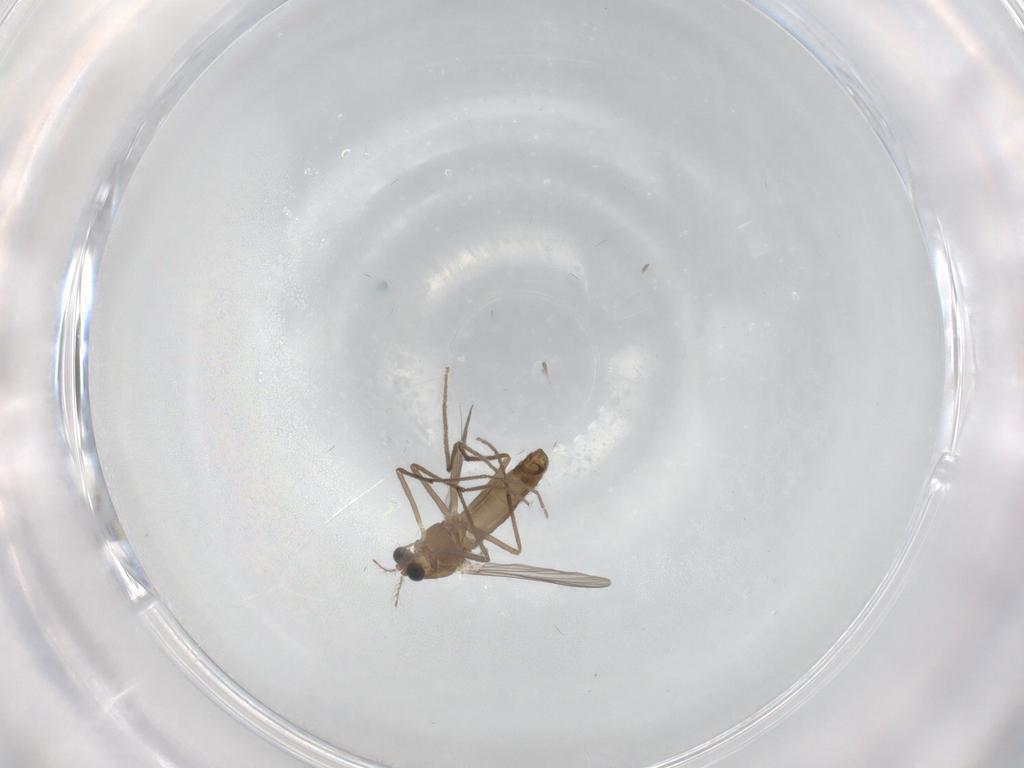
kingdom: Animalia
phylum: Arthropoda
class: Insecta
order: Diptera
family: Chironomidae
